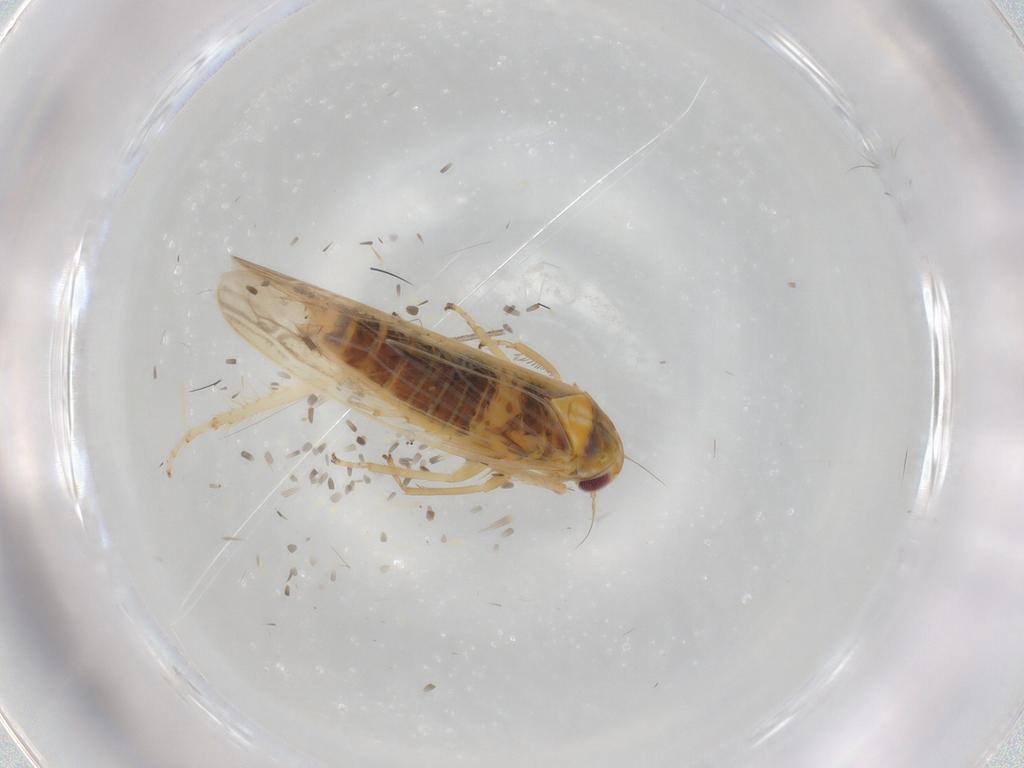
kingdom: Animalia
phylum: Arthropoda
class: Insecta
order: Hemiptera
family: Cicadellidae
